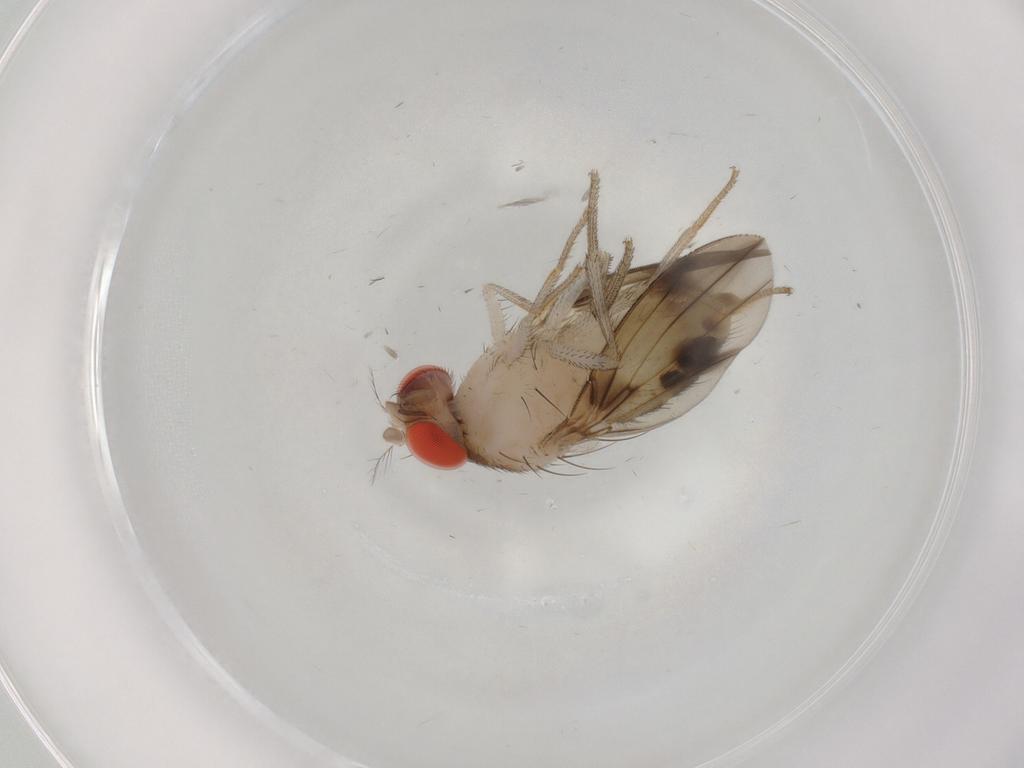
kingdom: Animalia
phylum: Arthropoda
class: Insecta
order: Diptera
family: Drosophilidae
